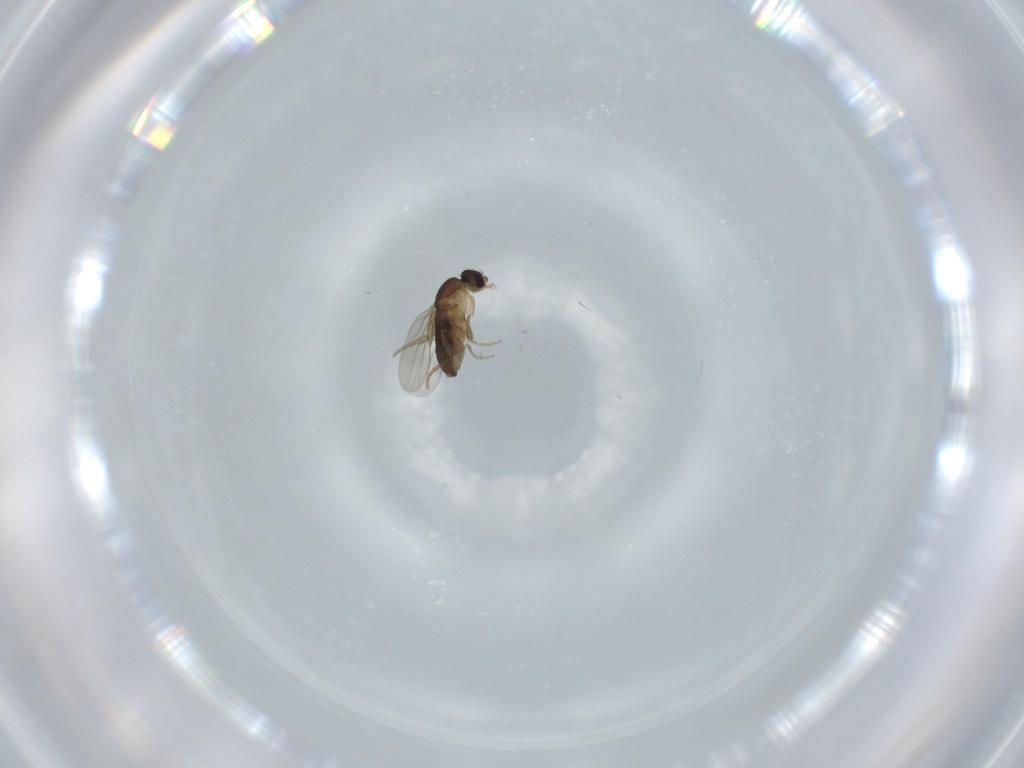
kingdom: Animalia
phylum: Arthropoda
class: Insecta
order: Diptera
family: Phoridae
